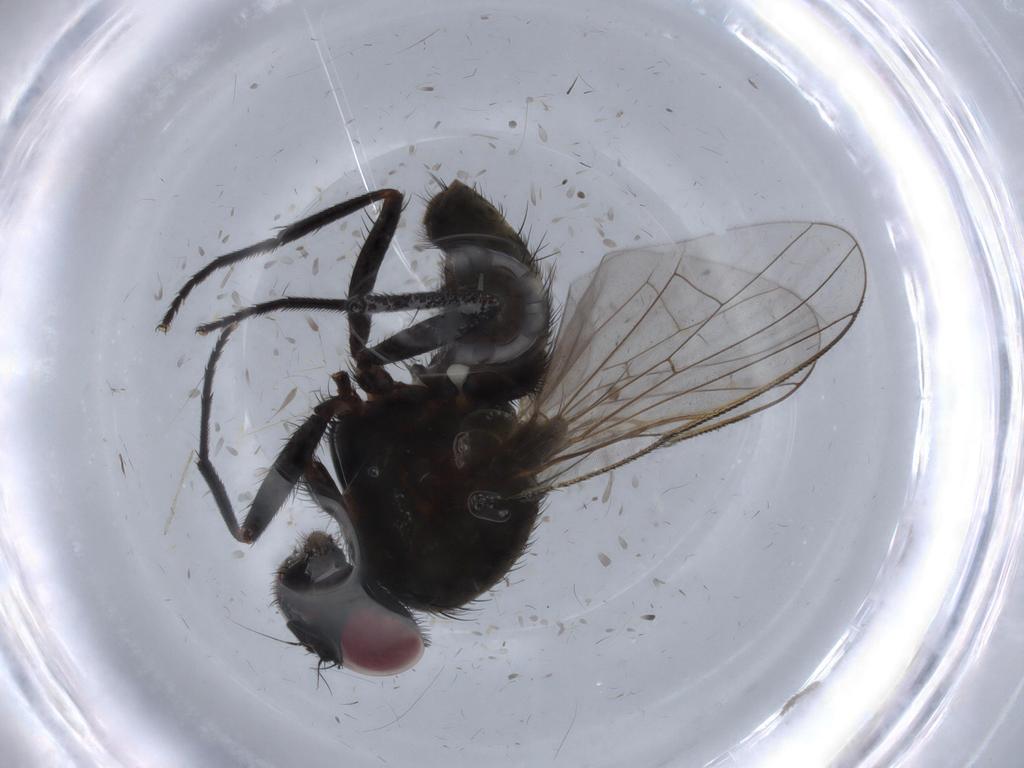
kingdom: Animalia
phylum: Arthropoda
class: Insecta
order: Diptera
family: Muscidae
